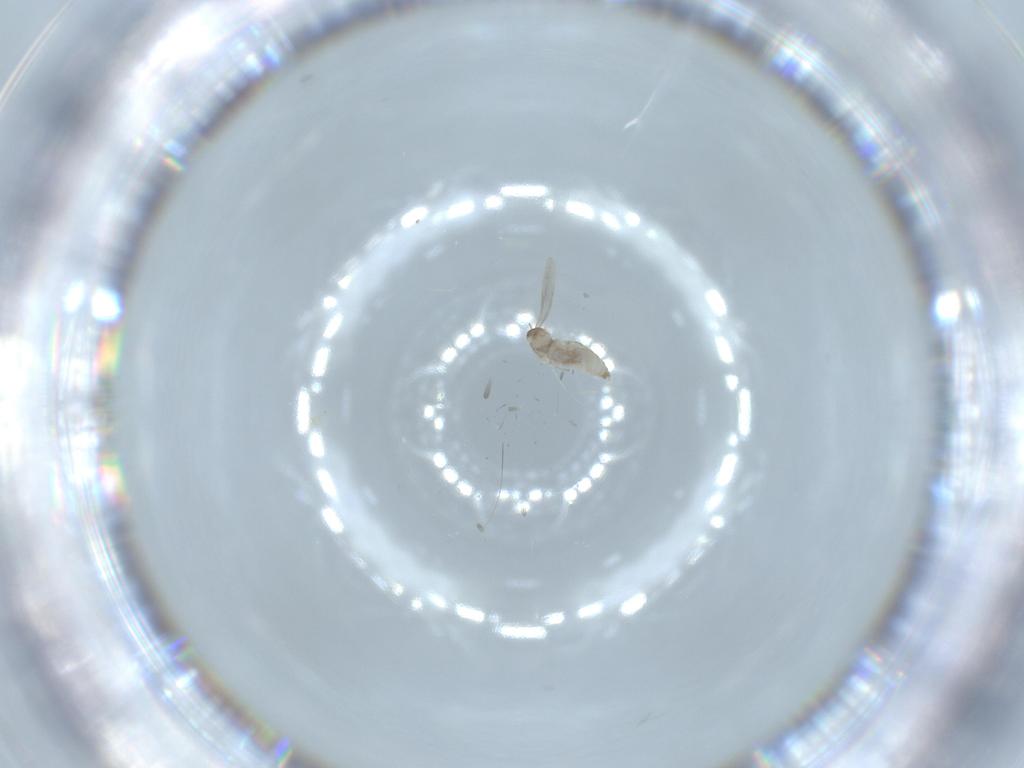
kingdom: Animalia
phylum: Arthropoda
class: Insecta
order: Diptera
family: Cecidomyiidae
